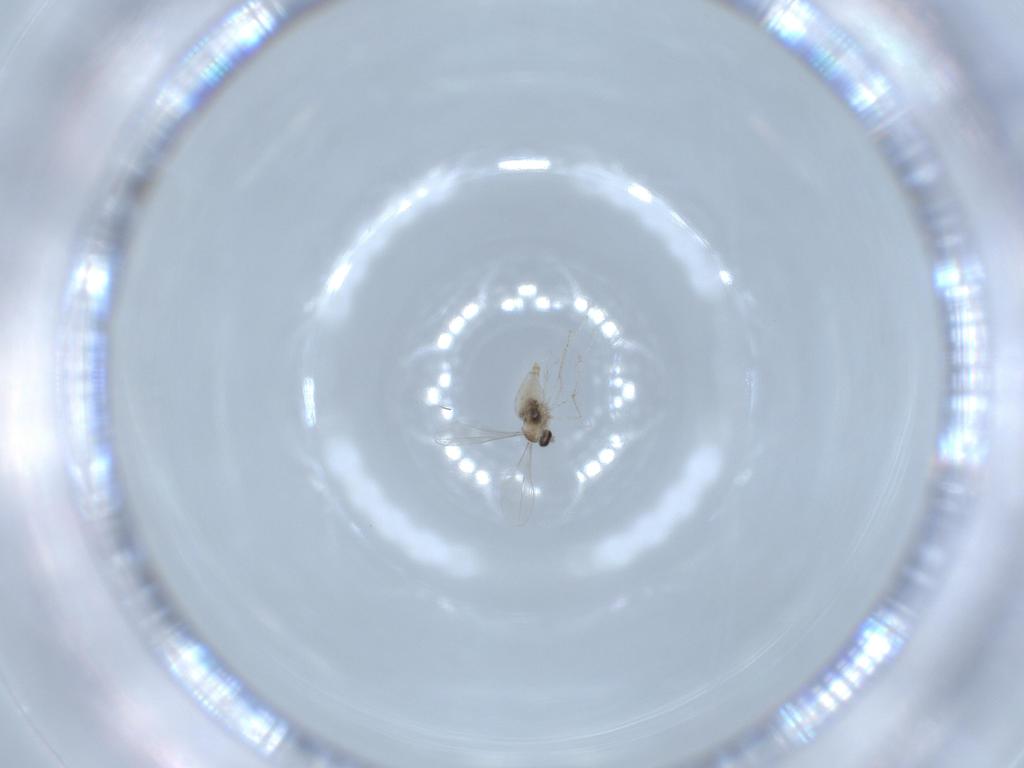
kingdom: Animalia
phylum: Arthropoda
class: Insecta
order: Diptera
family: Cecidomyiidae
